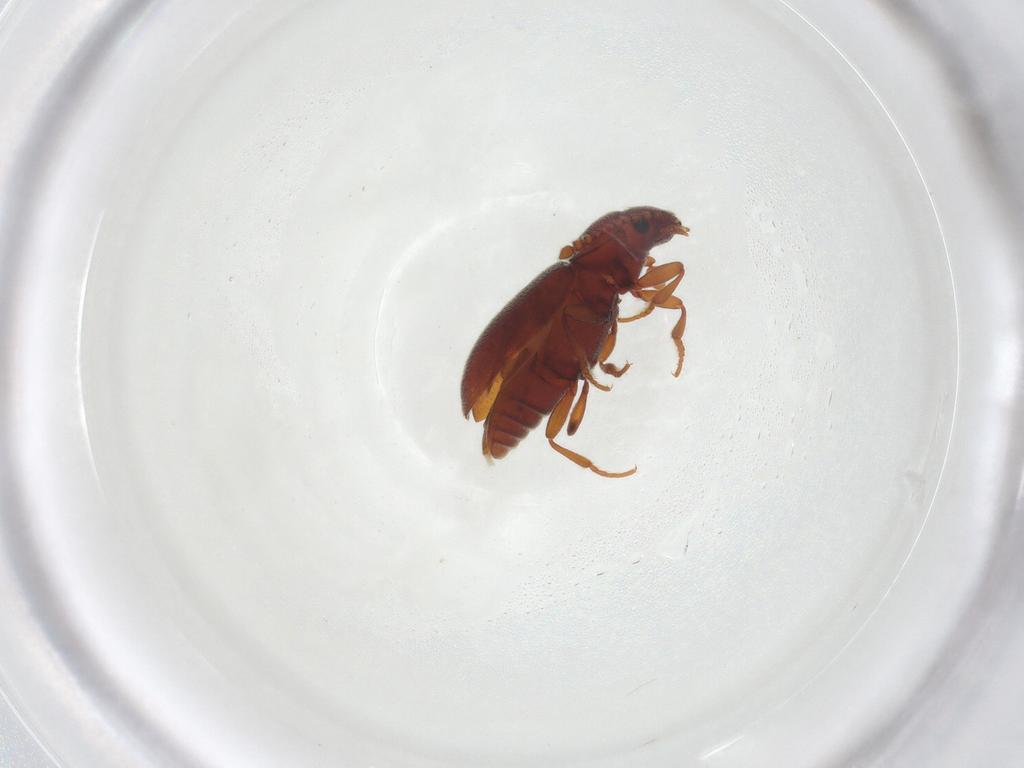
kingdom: Animalia
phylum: Arthropoda
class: Insecta
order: Coleoptera
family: Cryptophagidae
